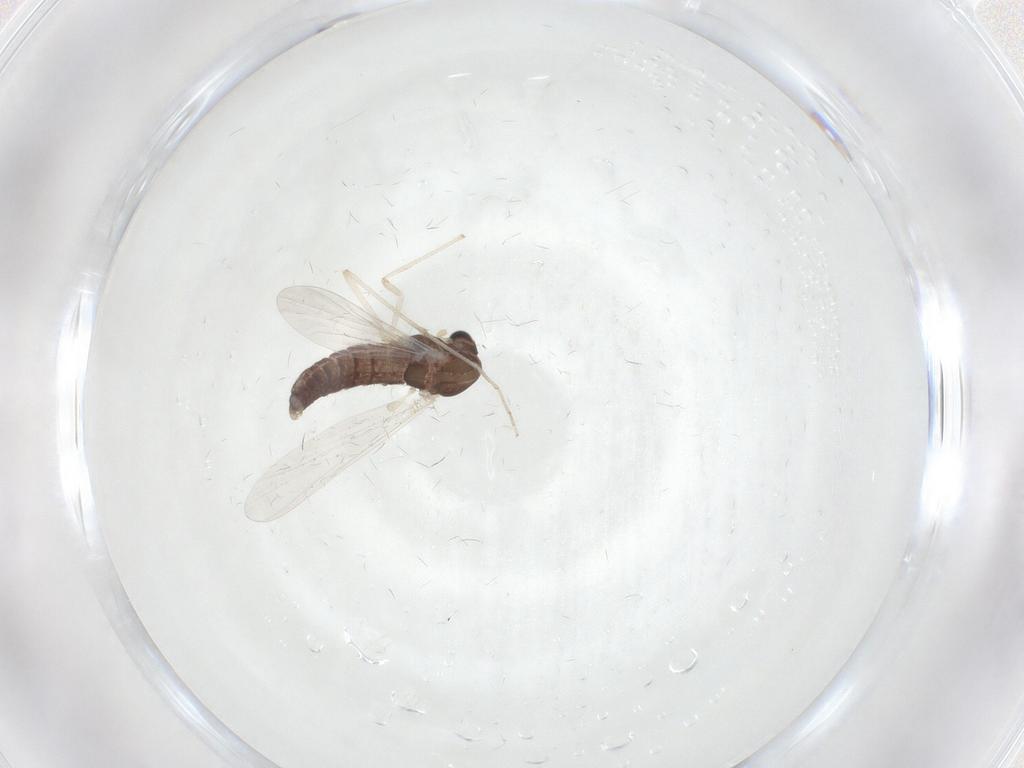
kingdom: Animalia
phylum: Arthropoda
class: Insecta
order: Diptera
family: Chironomidae
